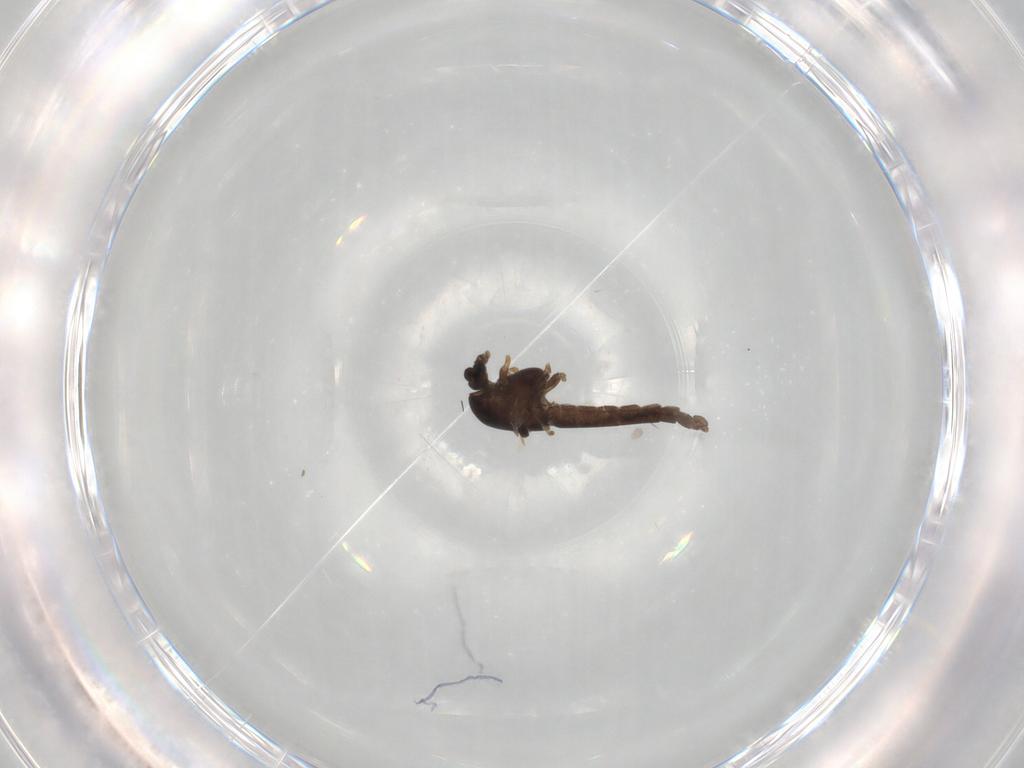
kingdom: Animalia
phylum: Arthropoda
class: Insecta
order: Diptera
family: Chironomidae
